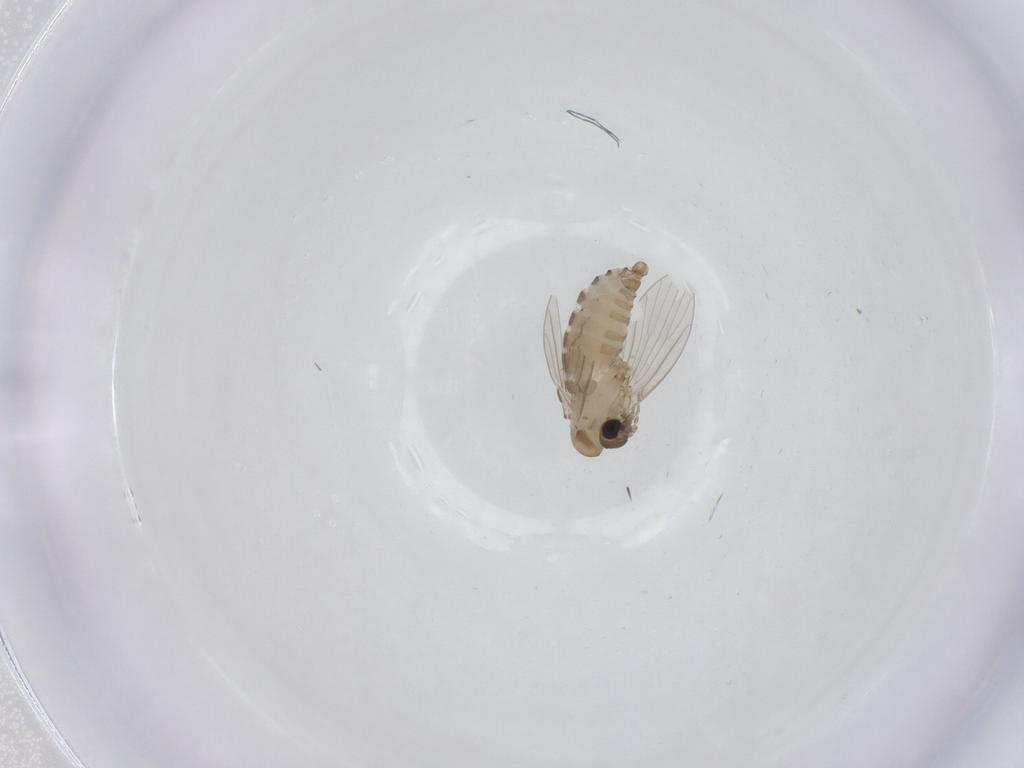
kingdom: Animalia
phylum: Arthropoda
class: Insecta
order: Diptera
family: Psychodidae
